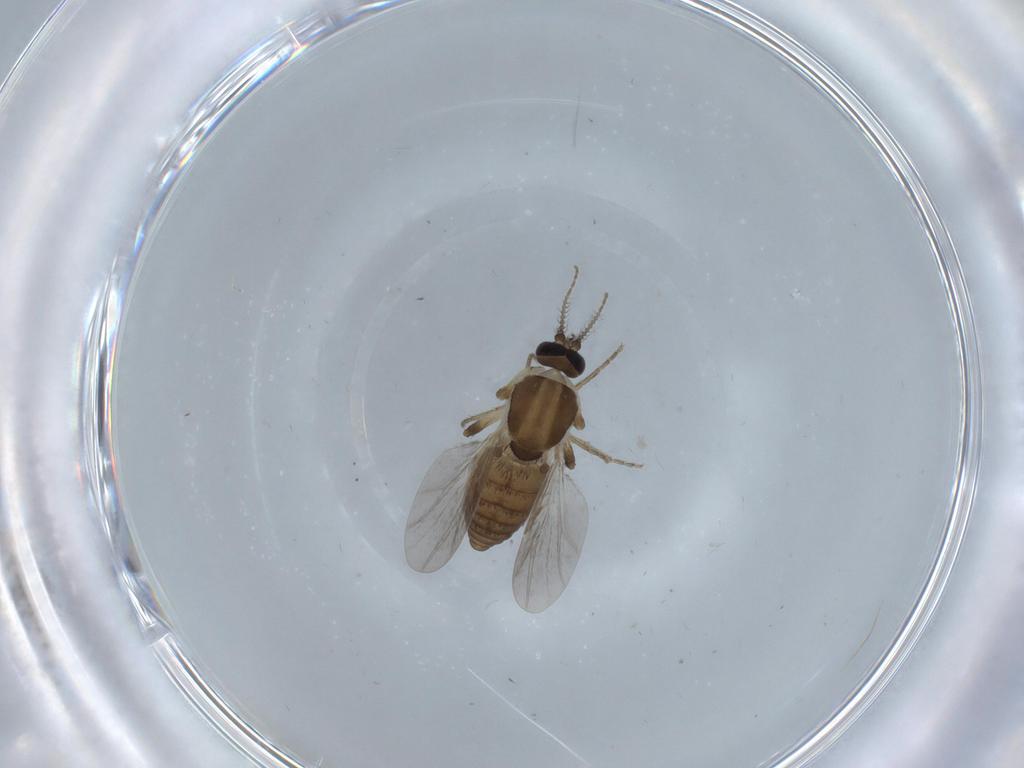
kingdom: Animalia
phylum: Arthropoda
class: Insecta
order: Diptera
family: Ceratopogonidae
